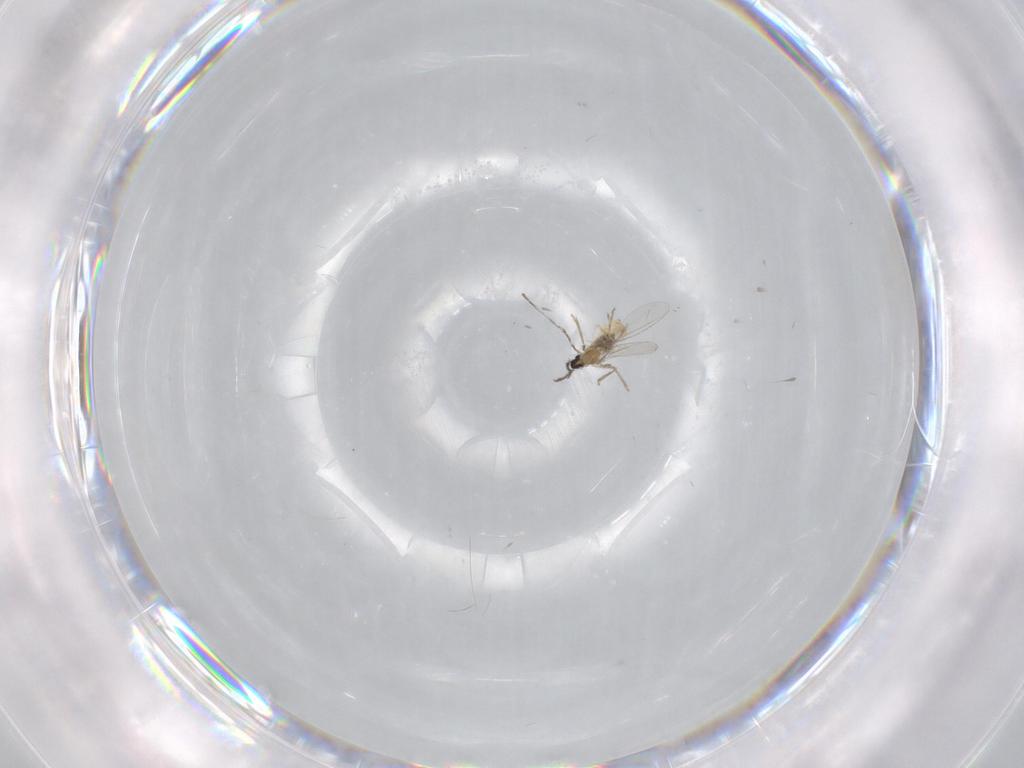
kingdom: Animalia
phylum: Arthropoda
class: Insecta
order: Diptera
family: Cecidomyiidae
